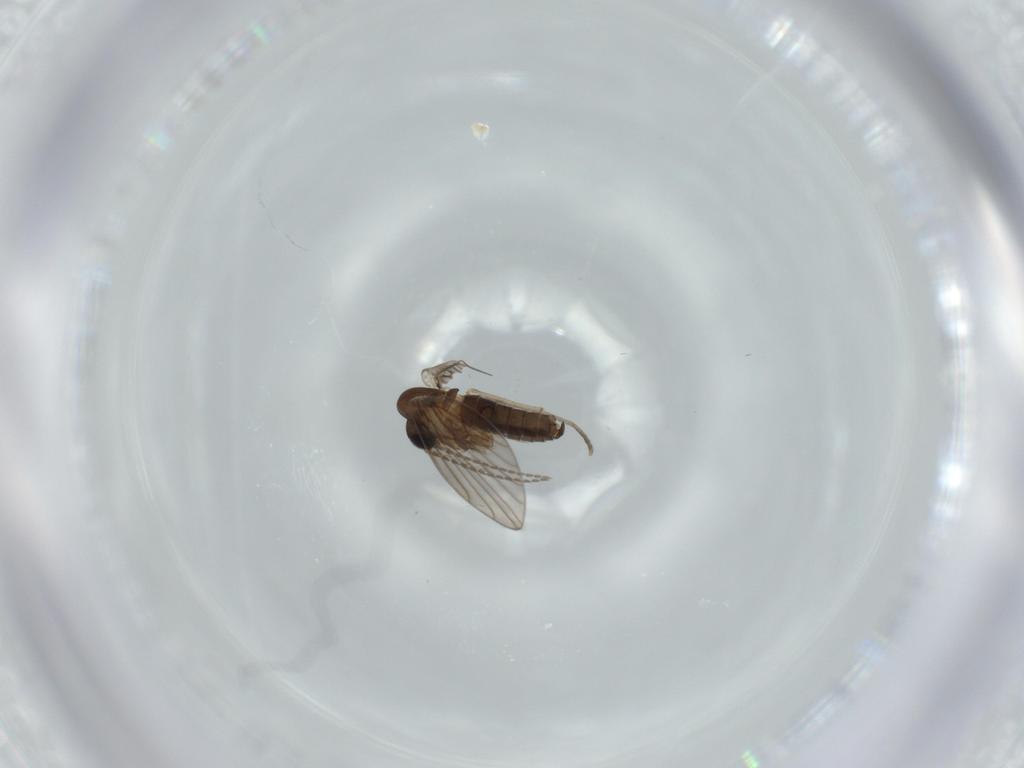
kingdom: Animalia
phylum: Arthropoda
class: Insecta
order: Diptera
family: Psychodidae
